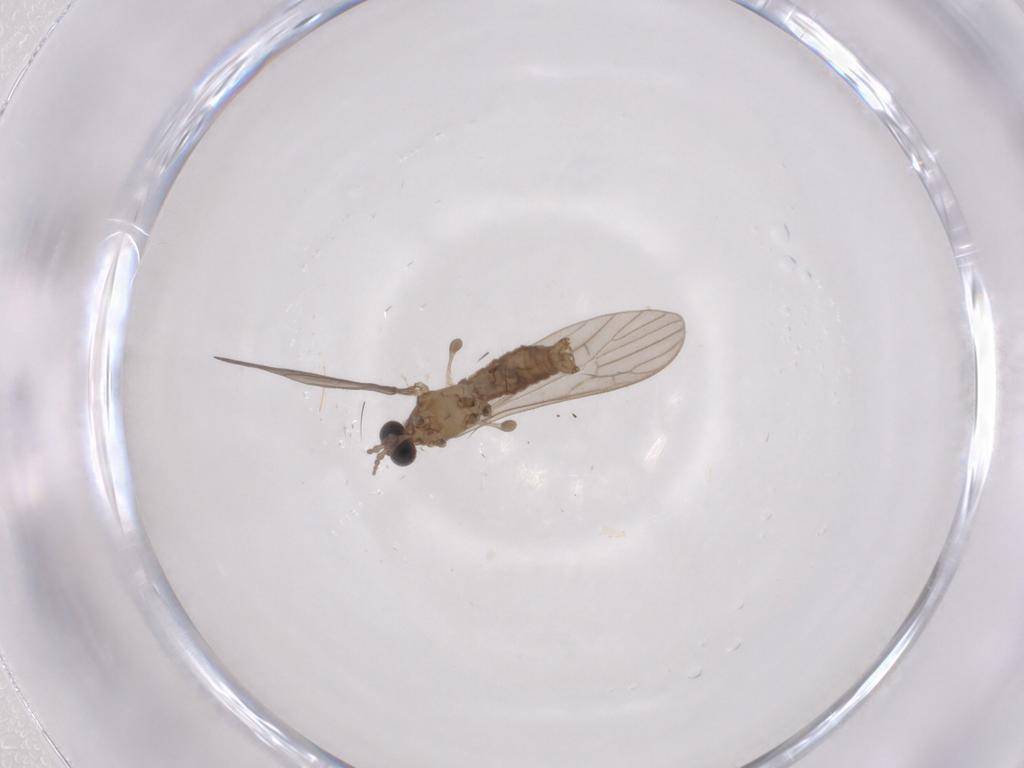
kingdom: Animalia
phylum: Arthropoda
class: Insecta
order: Diptera
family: Limoniidae
